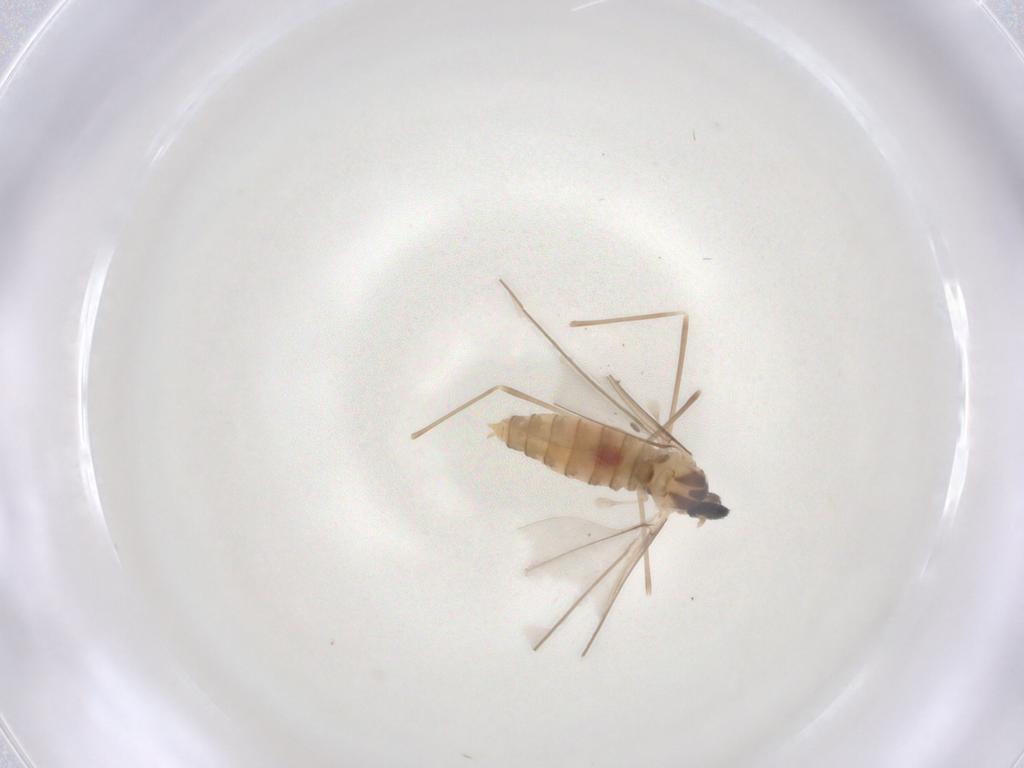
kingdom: Animalia
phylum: Arthropoda
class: Insecta
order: Diptera
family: Cecidomyiidae
